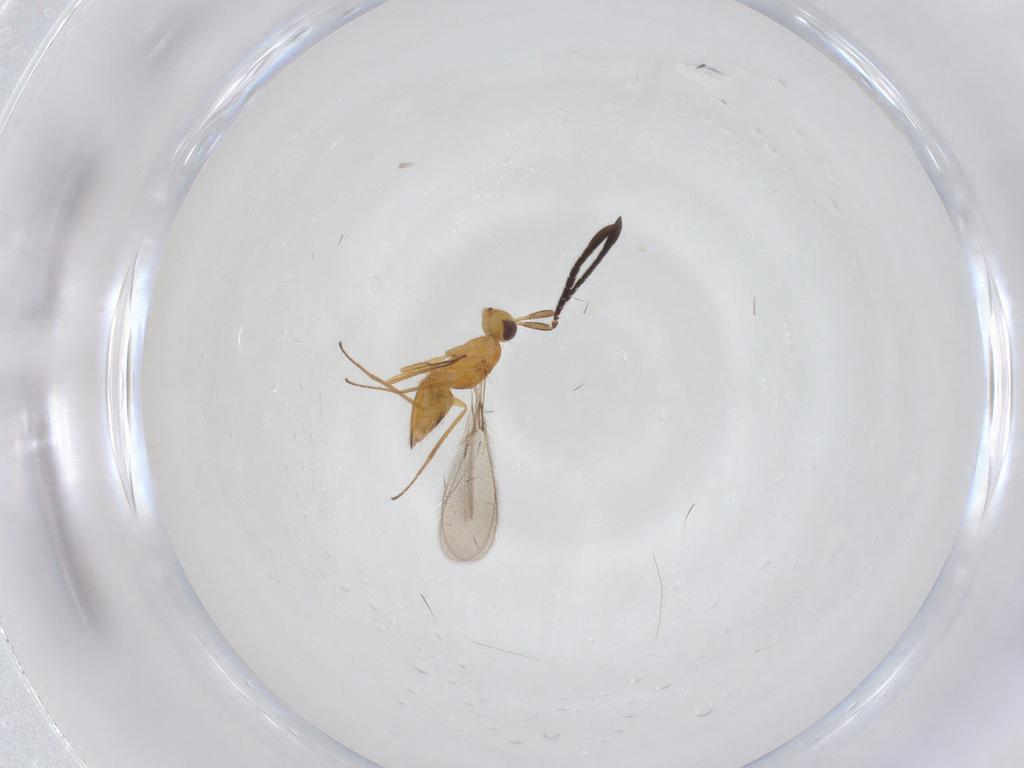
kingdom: Animalia
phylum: Arthropoda
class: Insecta
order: Hymenoptera
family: Mymaridae
